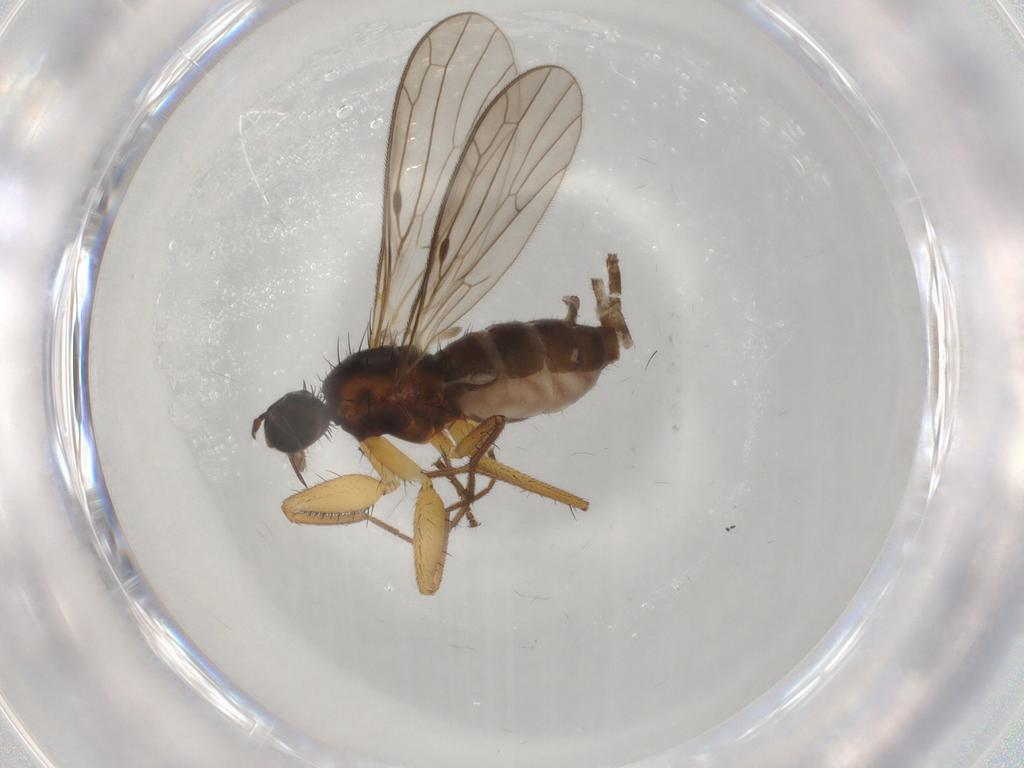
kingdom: Animalia
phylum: Arthropoda
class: Insecta
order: Diptera
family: Empididae
